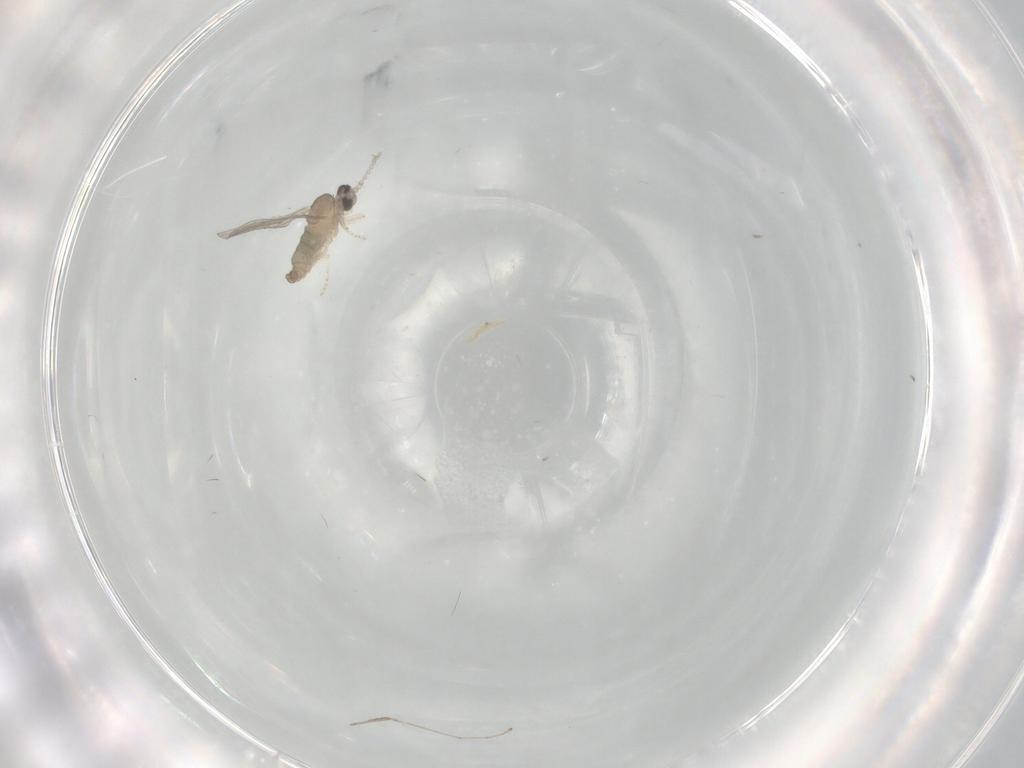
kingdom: Animalia
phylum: Arthropoda
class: Insecta
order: Diptera
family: Cecidomyiidae
